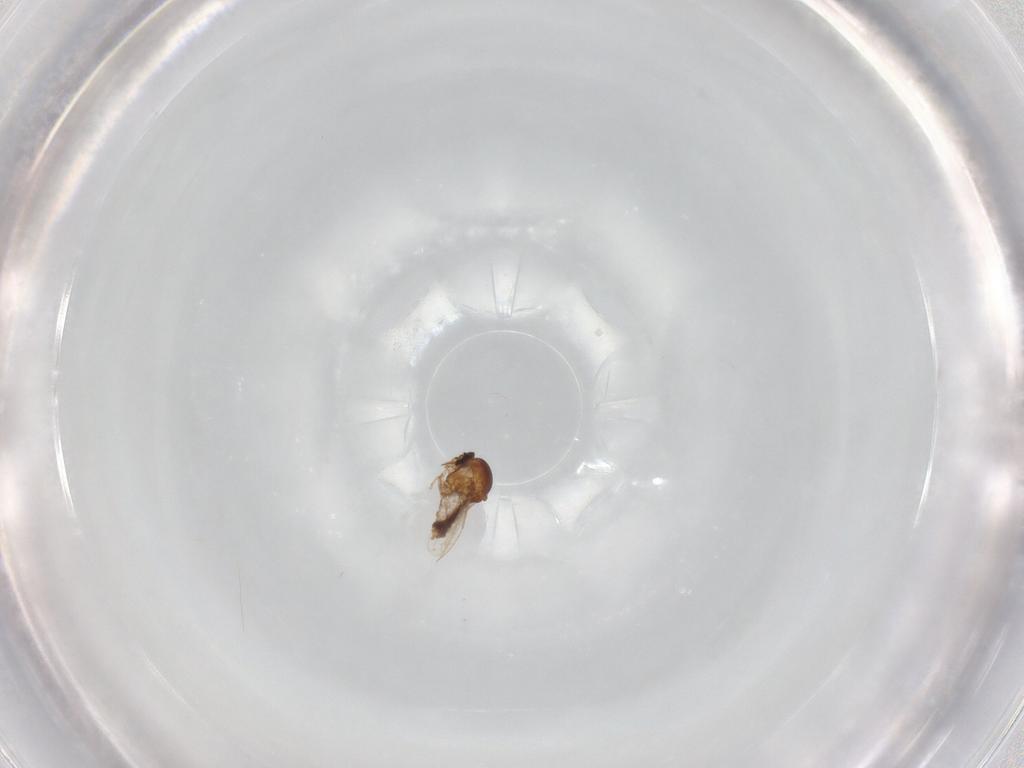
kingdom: Animalia
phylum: Arthropoda
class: Insecta
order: Diptera
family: Ceratopogonidae
